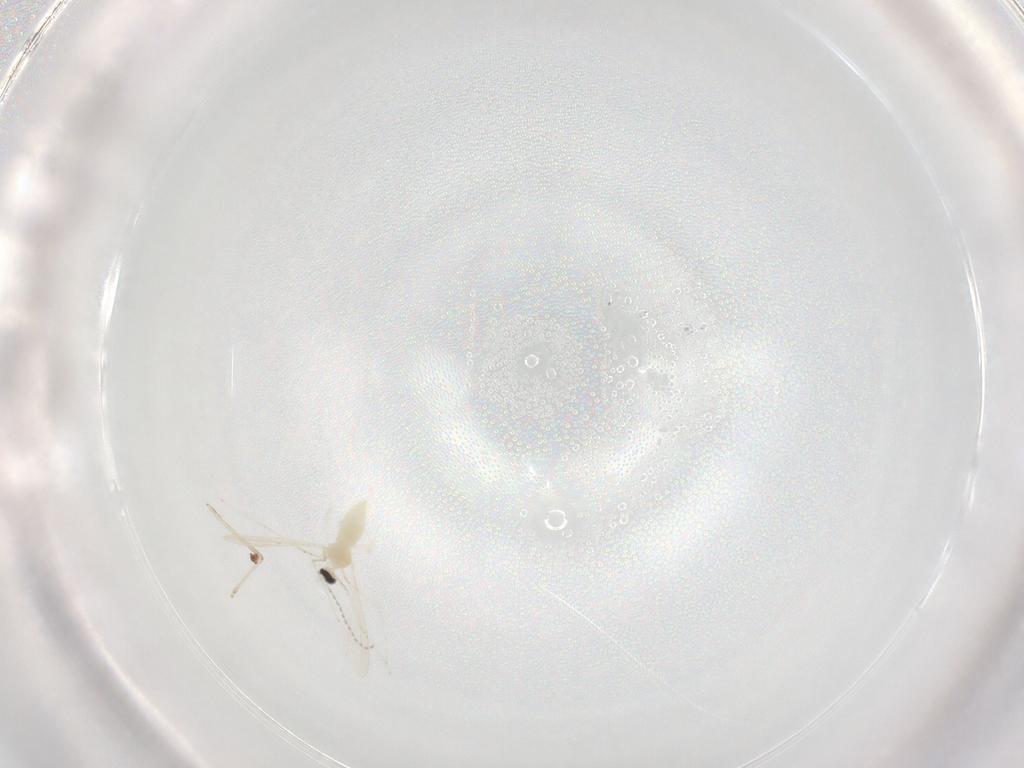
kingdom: Animalia
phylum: Arthropoda
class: Insecta
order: Diptera
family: Cecidomyiidae
